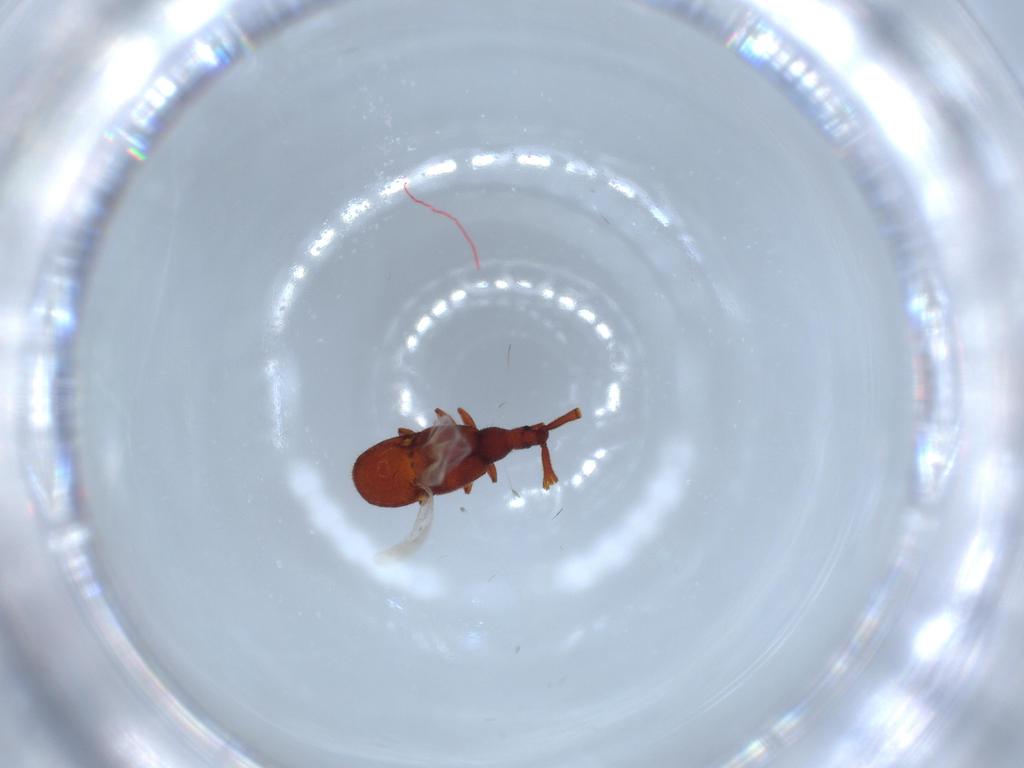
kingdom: Animalia
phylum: Arthropoda
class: Insecta
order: Coleoptera
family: Staphylinidae
